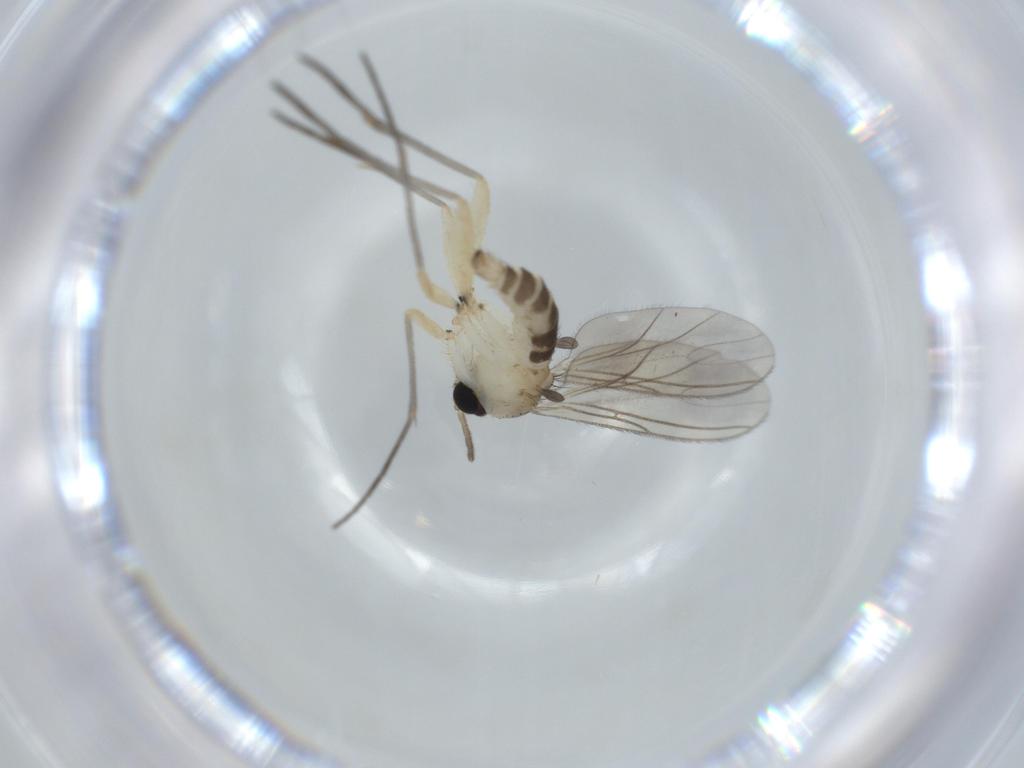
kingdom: Animalia
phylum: Arthropoda
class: Insecta
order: Diptera
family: Sciaridae
